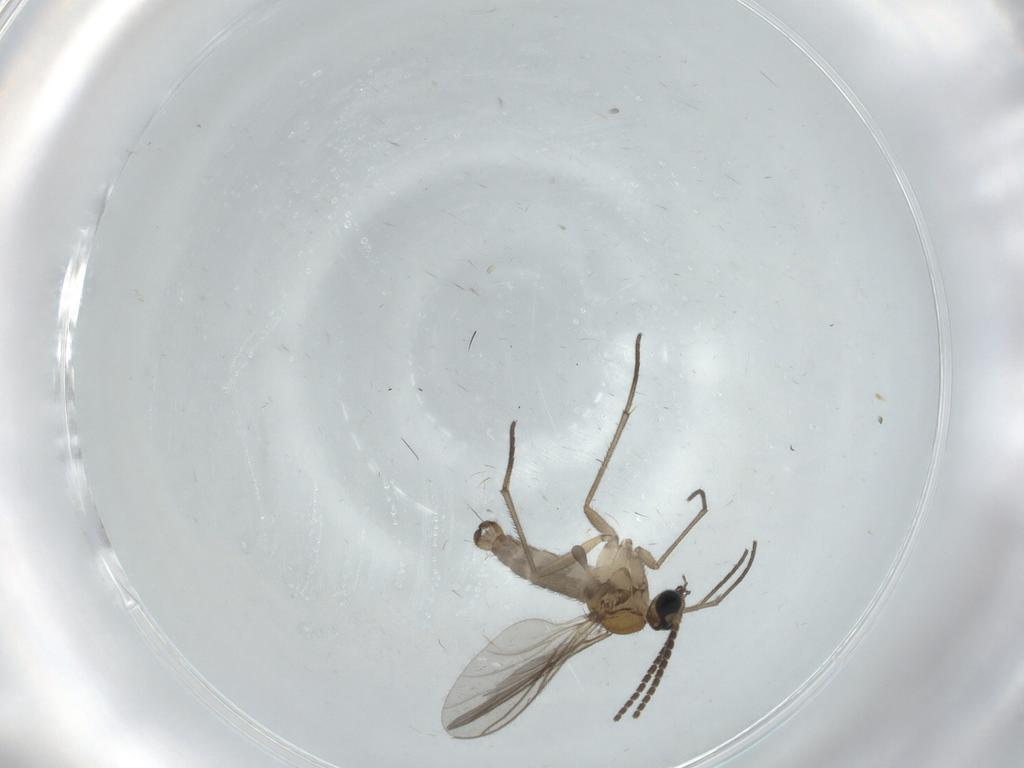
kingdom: Animalia
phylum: Arthropoda
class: Insecta
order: Diptera
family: Sciaridae
